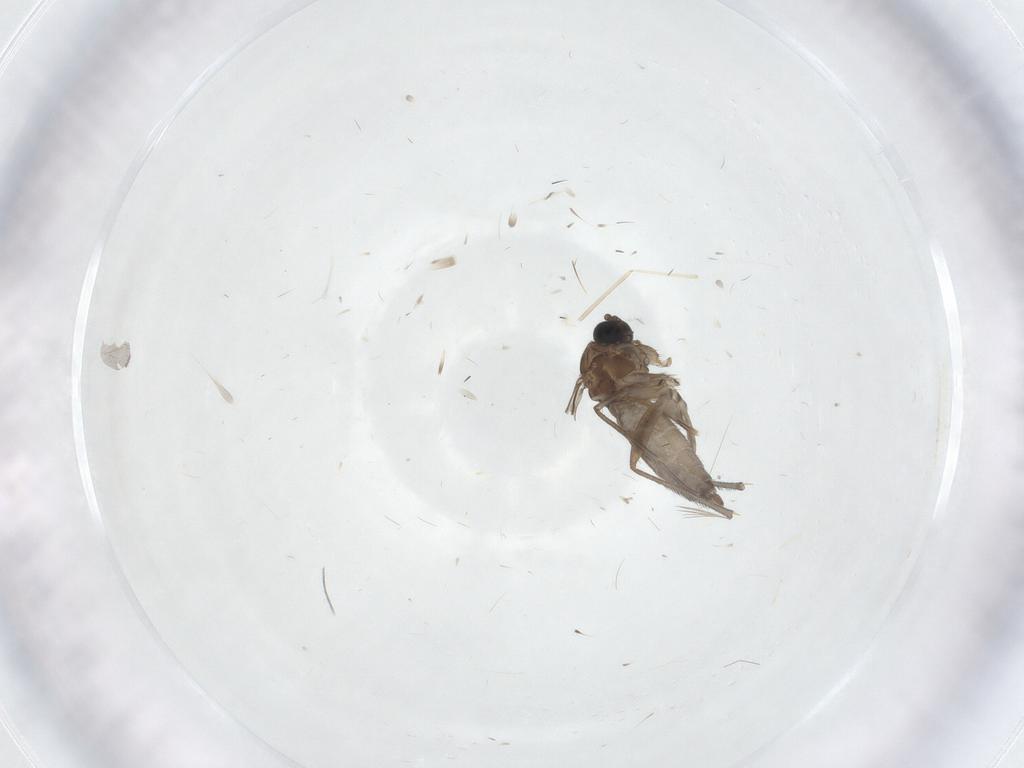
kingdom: Animalia
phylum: Arthropoda
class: Insecta
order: Diptera
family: Sciaridae
